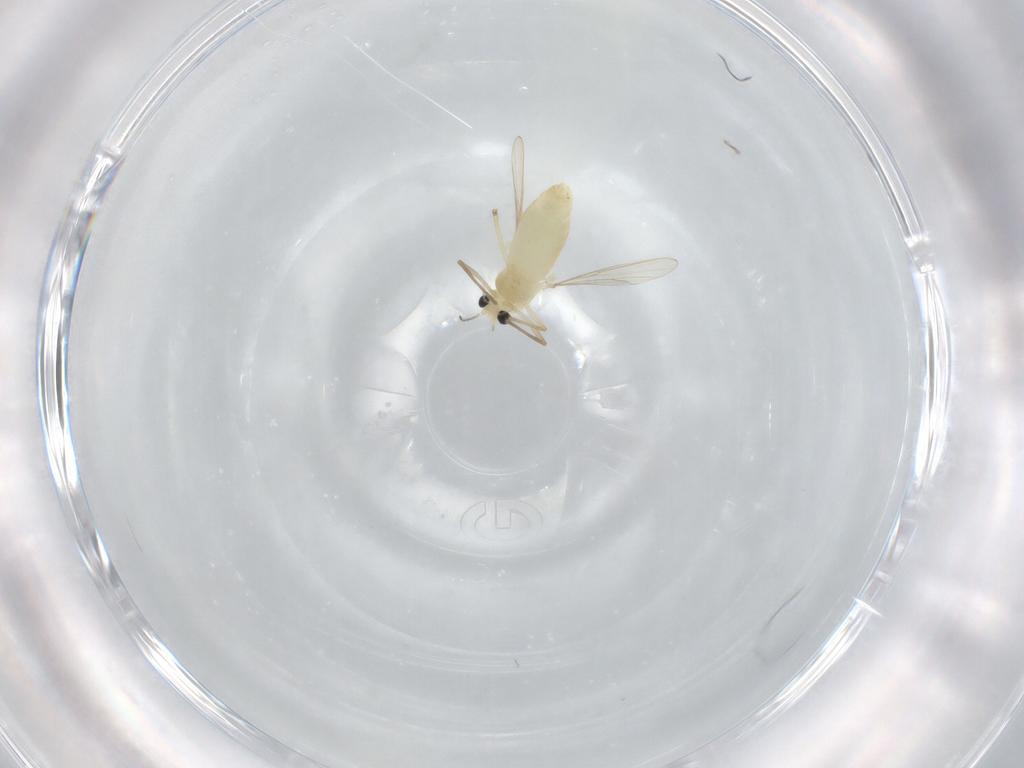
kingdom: Animalia
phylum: Arthropoda
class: Insecta
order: Diptera
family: Chironomidae
